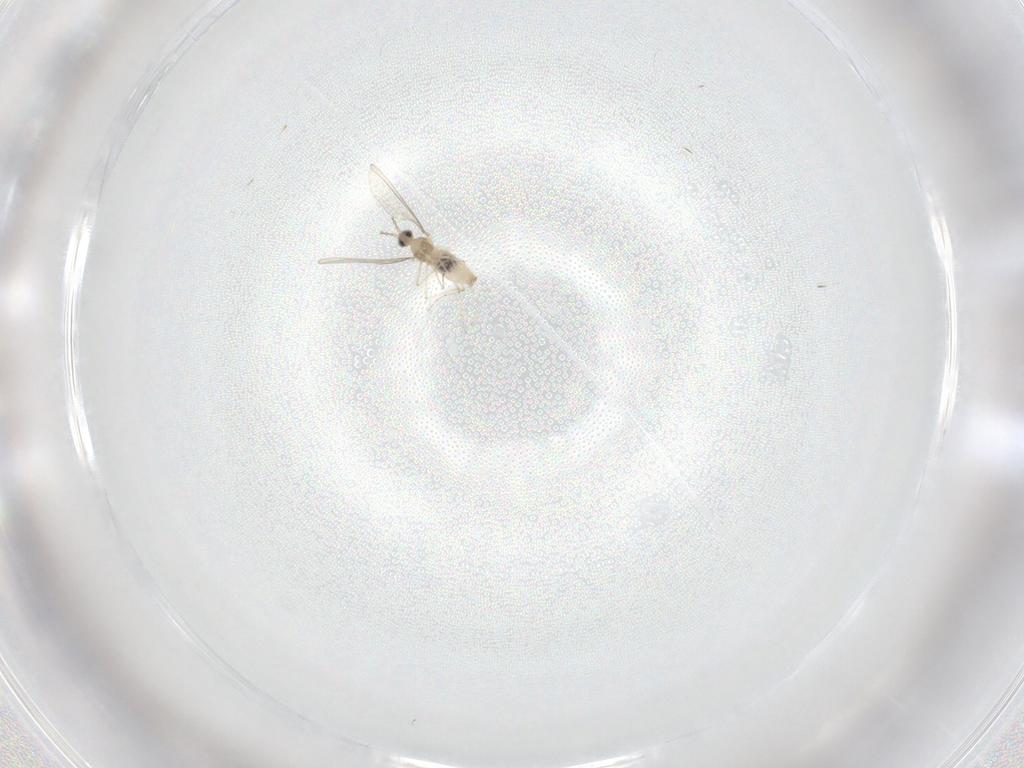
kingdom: Animalia
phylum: Arthropoda
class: Insecta
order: Diptera
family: Cecidomyiidae
